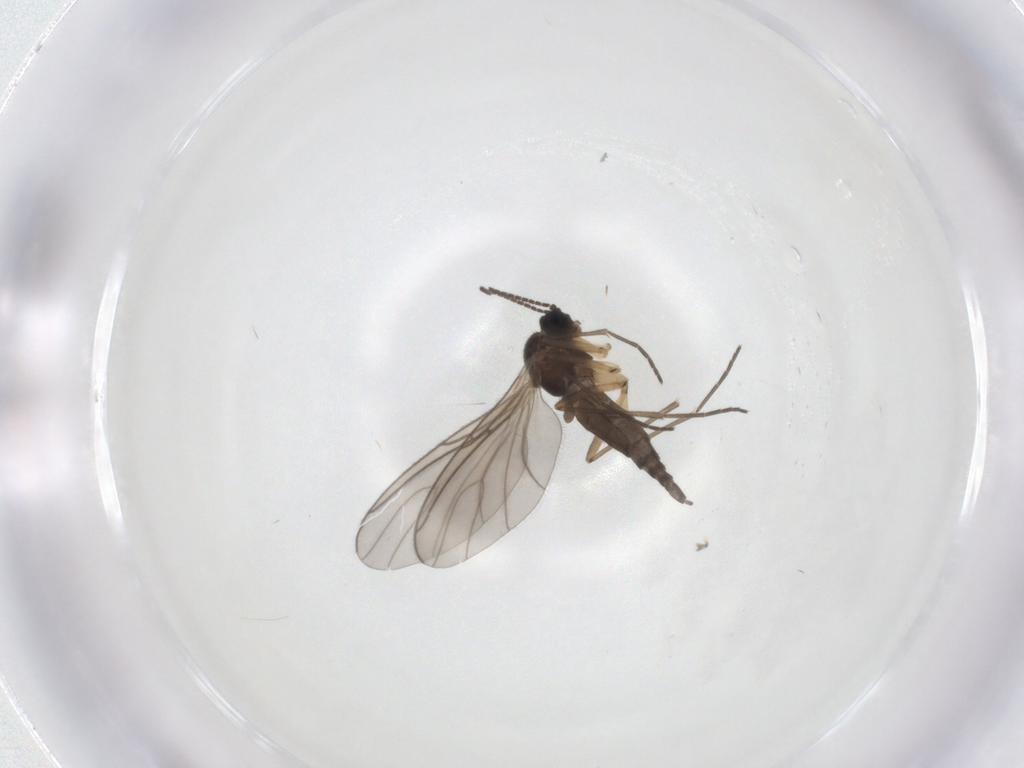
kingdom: Animalia
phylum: Arthropoda
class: Insecta
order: Diptera
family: Sciaridae
